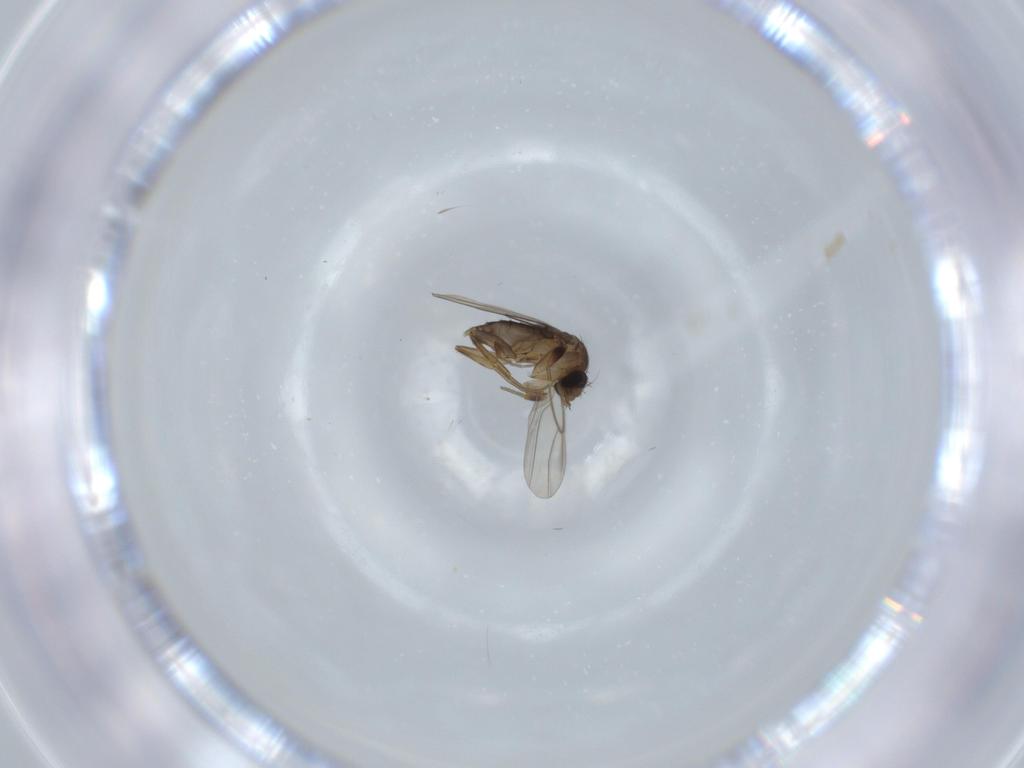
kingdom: Animalia
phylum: Arthropoda
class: Insecta
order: Diptera
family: Phoridae
